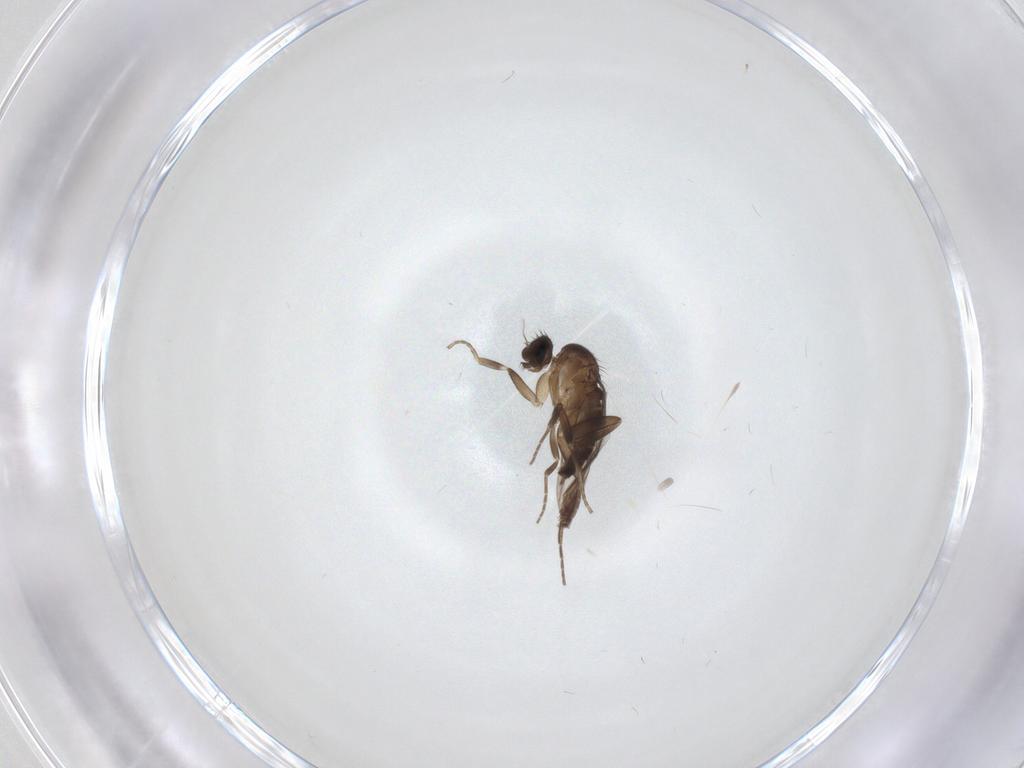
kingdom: Animalia
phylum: Arthropoda
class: Insecta
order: Diptera
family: Phoridae
